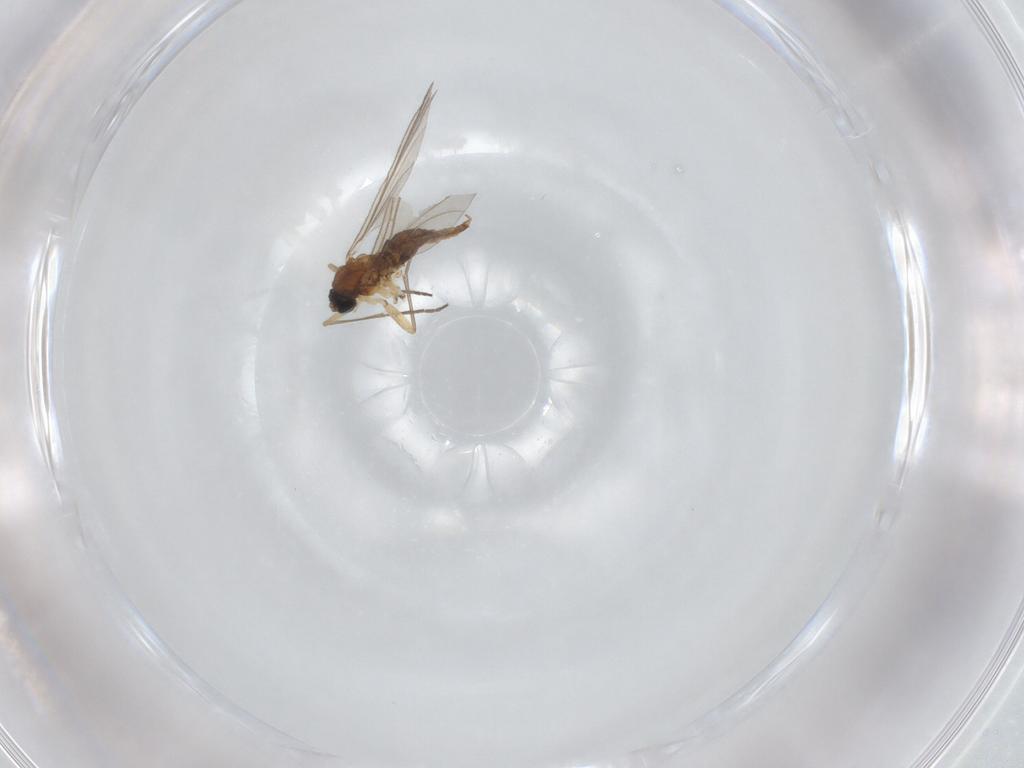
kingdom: Animalia
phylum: Arthropoda
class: Insecta
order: Diptera
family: Sciaridae
